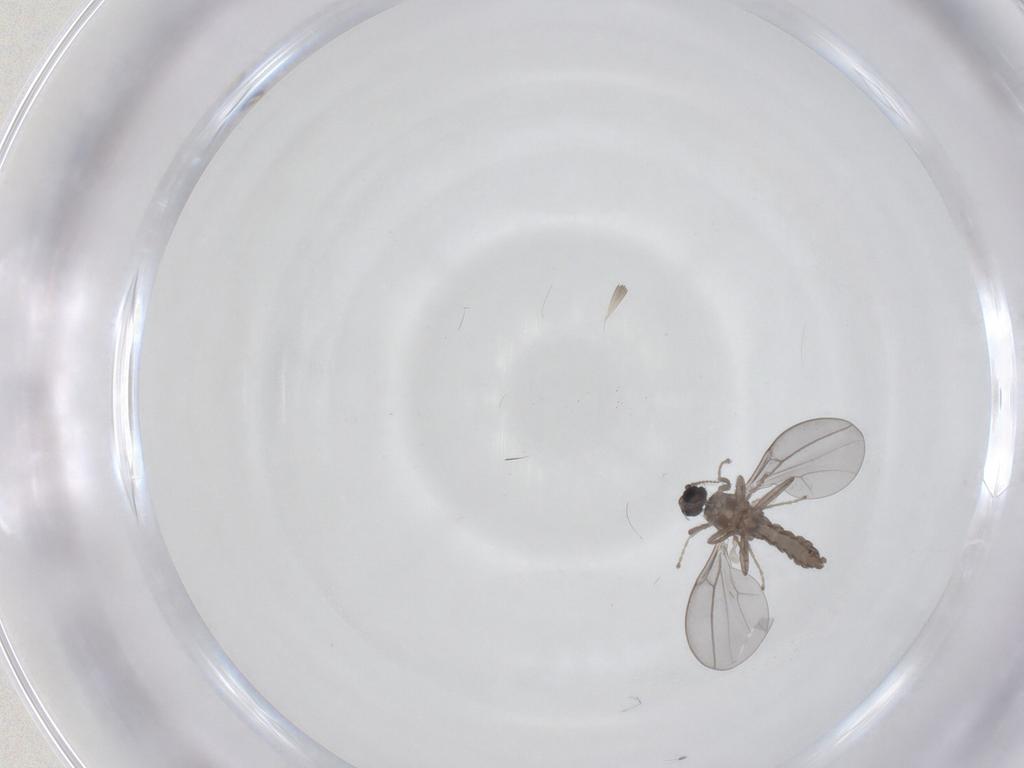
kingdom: Animalia
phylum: Arthropoda
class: Insecta
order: Diptera
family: Cecidomyiidae
